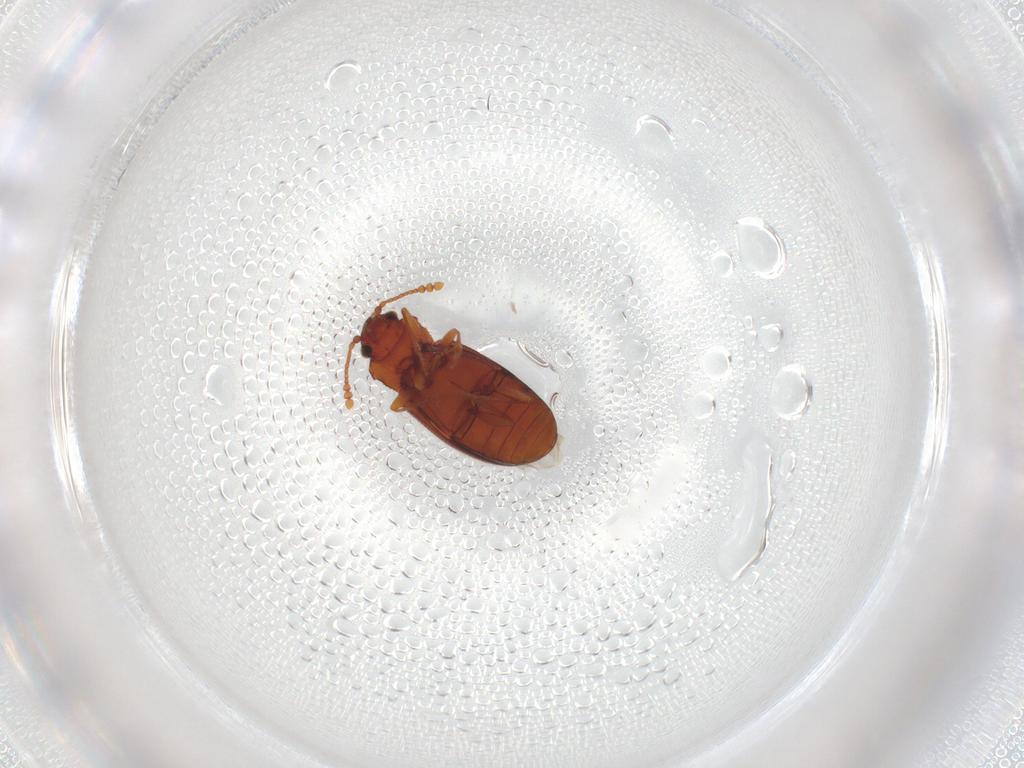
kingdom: Animalia
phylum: Arthropoda
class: Insecta
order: Coleoptera
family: Cryptophagidae
